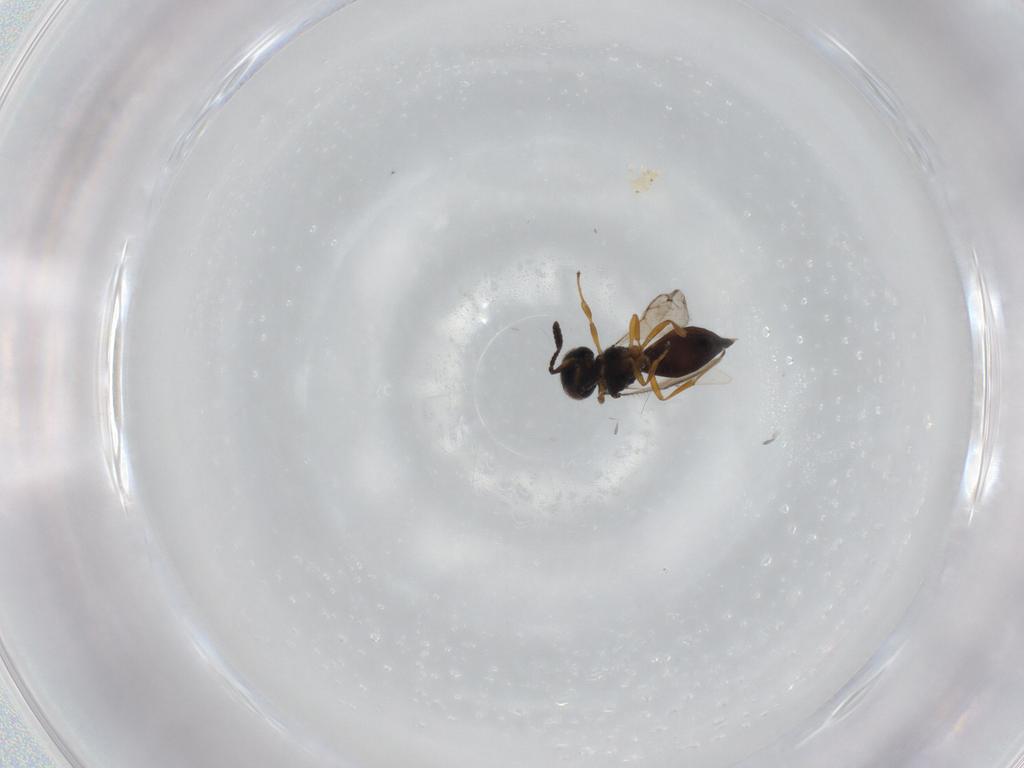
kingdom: Animalia
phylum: Arthropoda
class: Insecta
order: Hymenoptera
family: Scelionidae
